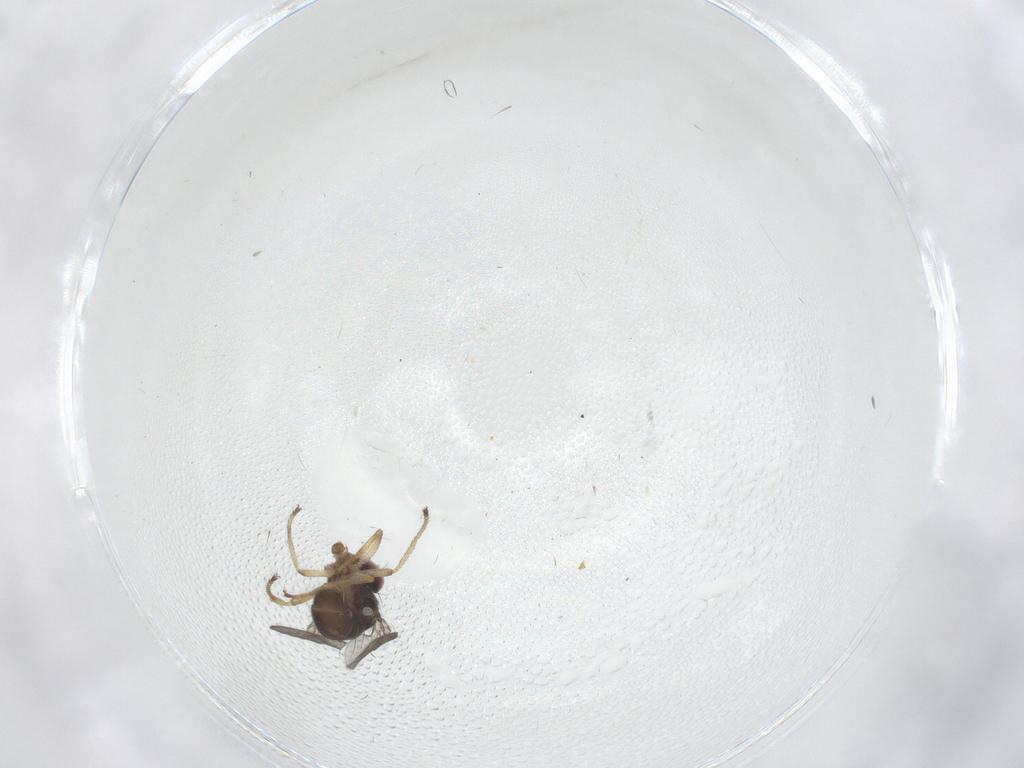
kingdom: Animalia
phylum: Arthropoda
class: Insecta
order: Diptera
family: Ephydridae
